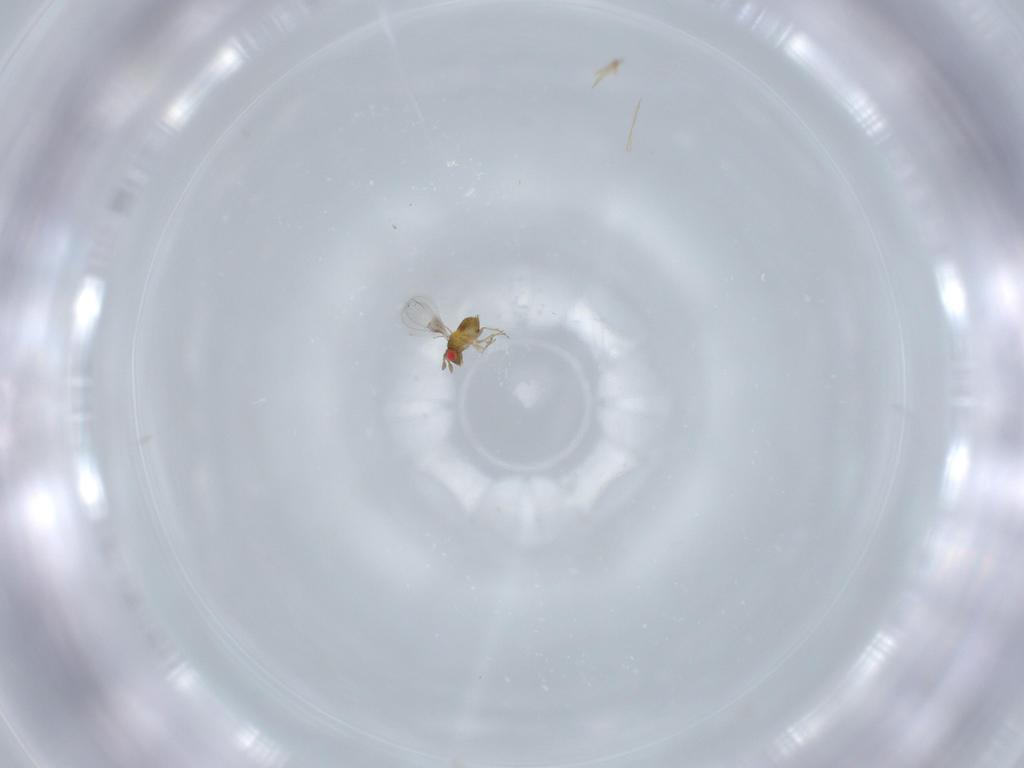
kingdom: Animalia
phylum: Arthropoda
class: Insecta
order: Hymenoptera
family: Trichogrammatidae
